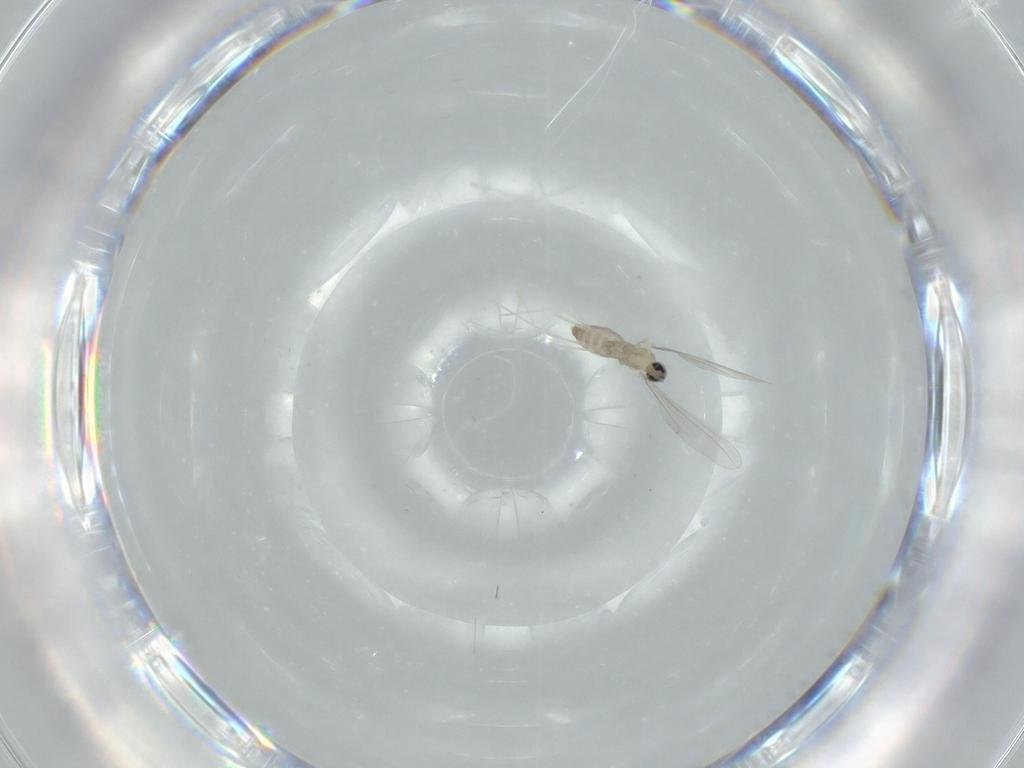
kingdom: Animalia
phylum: Arthropoda
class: Insecta
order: Diptera
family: Cecidomyiidae
